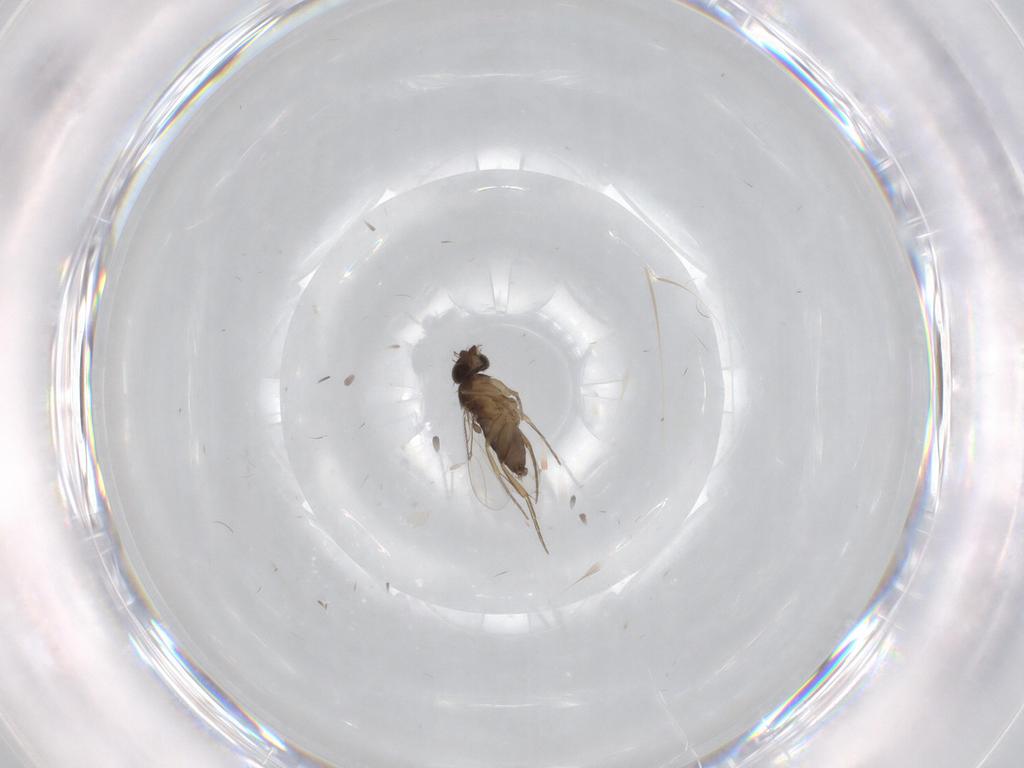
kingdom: Animalia
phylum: Arthropoda
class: Insecta
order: Diptera
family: Phoridae
